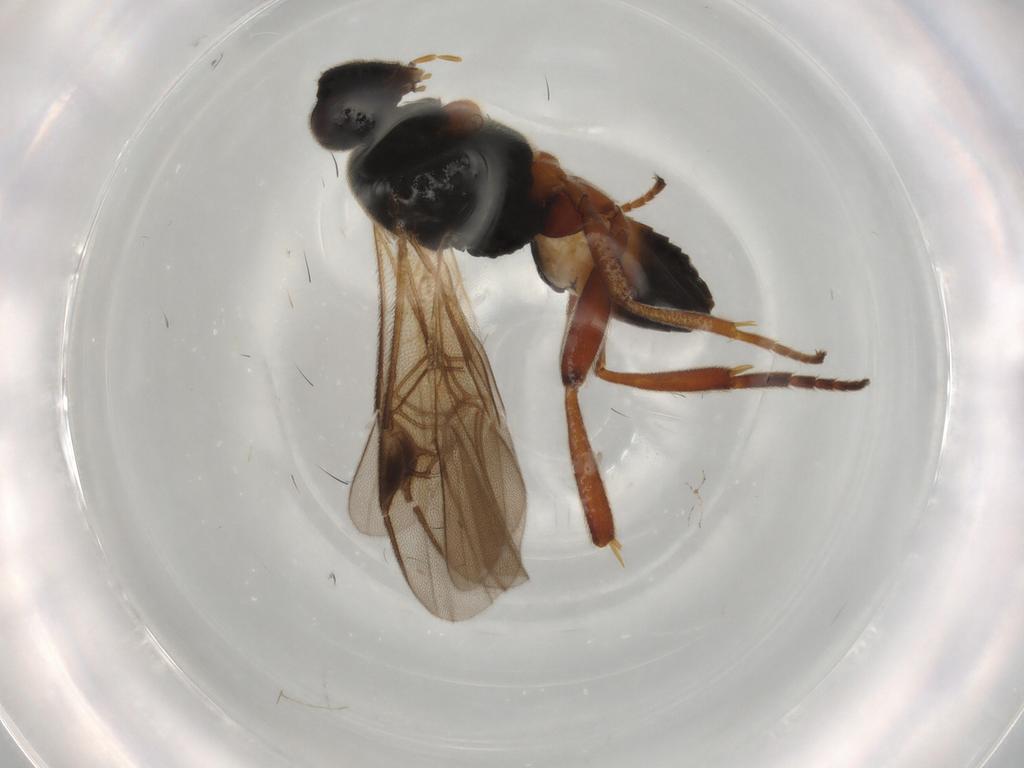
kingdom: Animalia
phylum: Arthropoda
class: Insecta
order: Hymenoptera
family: Braconidae
